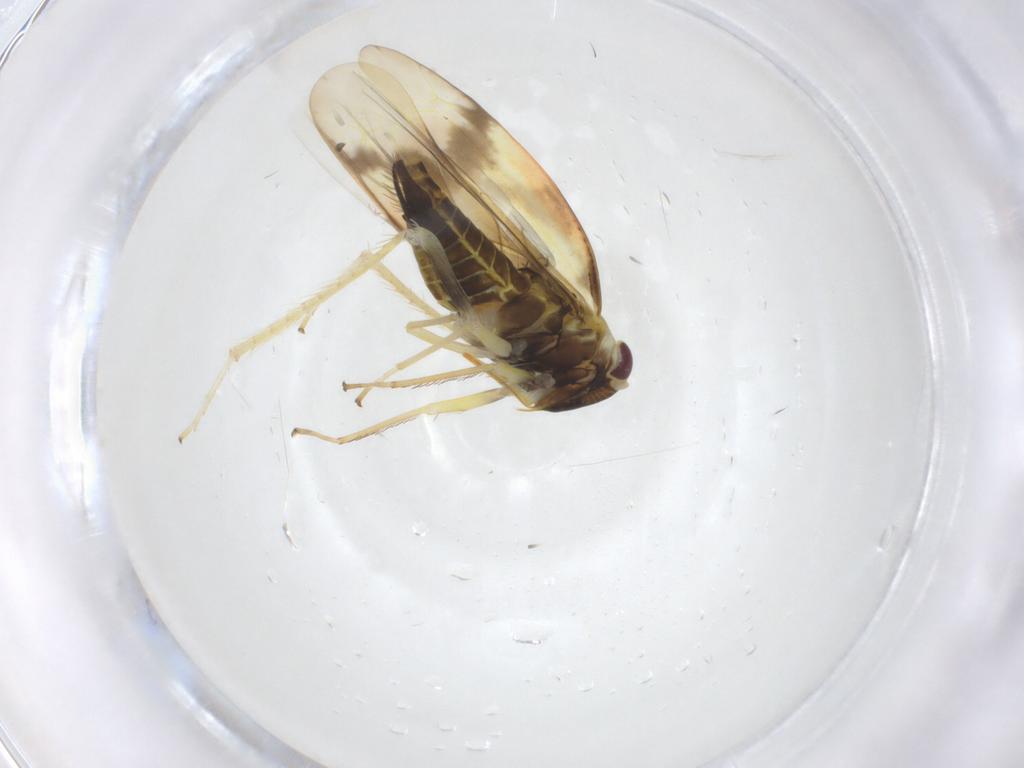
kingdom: Animalia
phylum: Arthropoda
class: Insecta
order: Hemiptera
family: Cicadellidae
